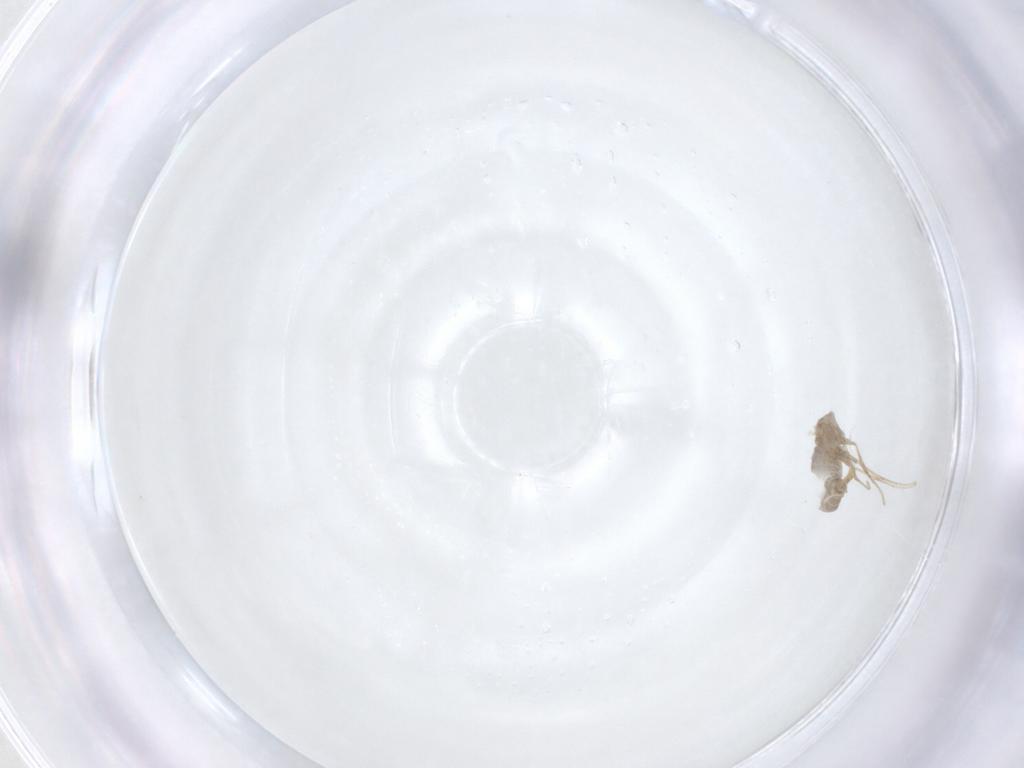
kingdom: Animalia
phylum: Arthropoda
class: Insecta
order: Diptera
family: Cecidomyiidae
